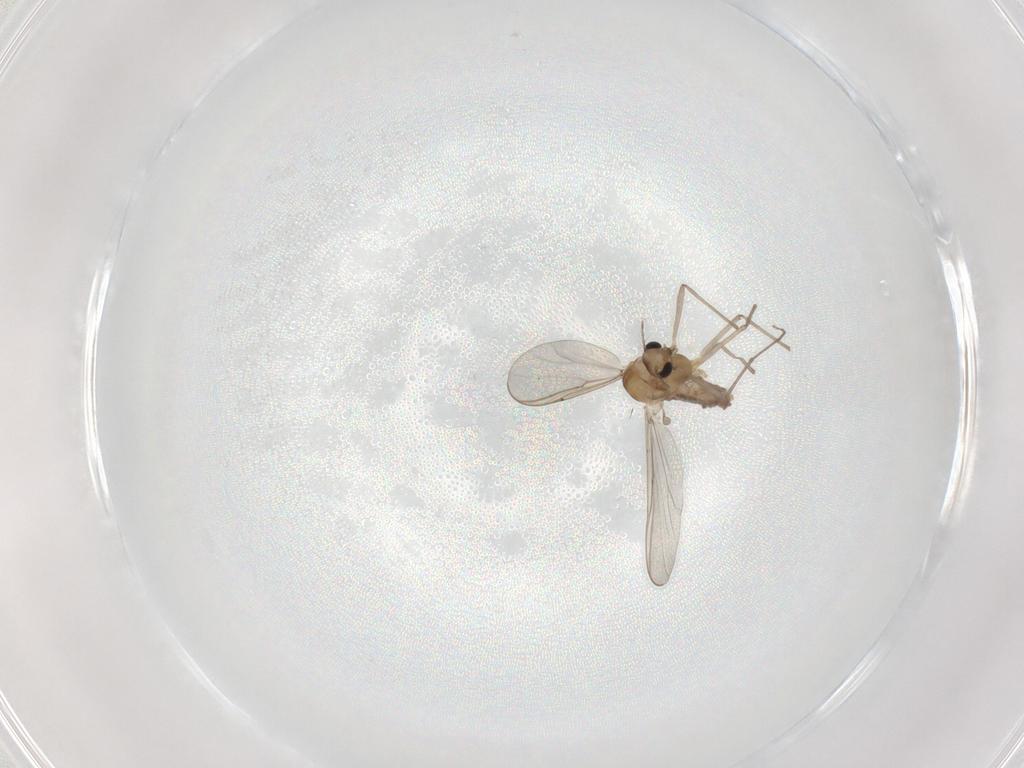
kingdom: Animalia
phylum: Arthropoda
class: Insecta
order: Diptera
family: Chironomidae
